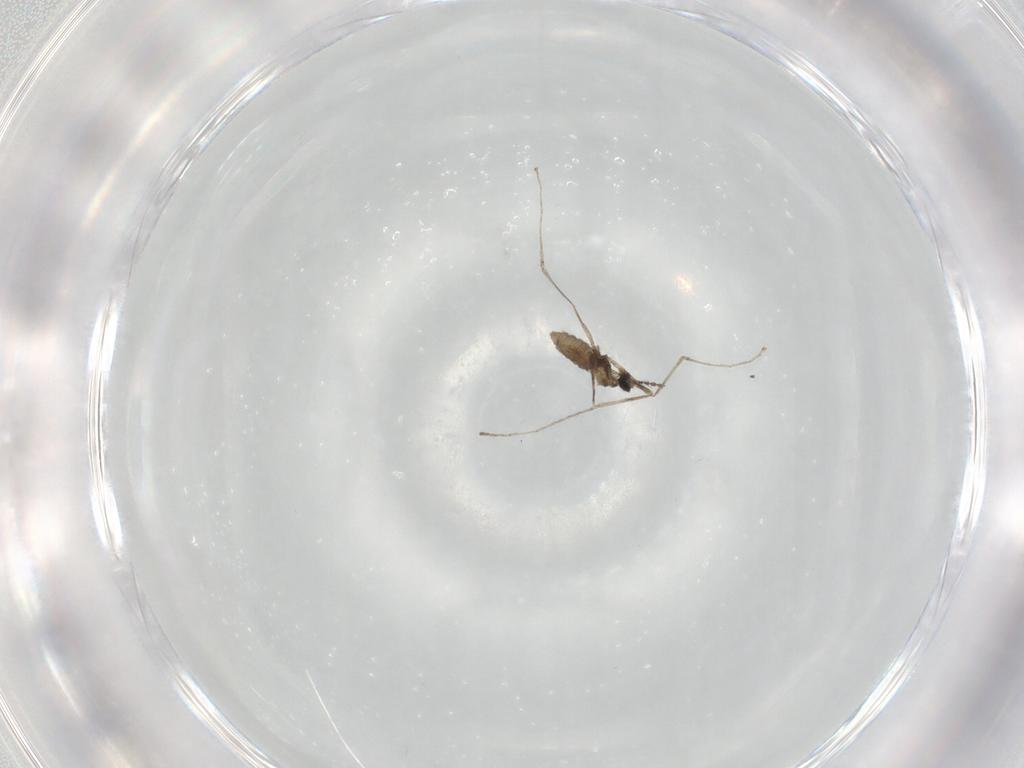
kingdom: Animalia
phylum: Arthropoda
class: Insecta
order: Diptera
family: Cecidomyiidae
